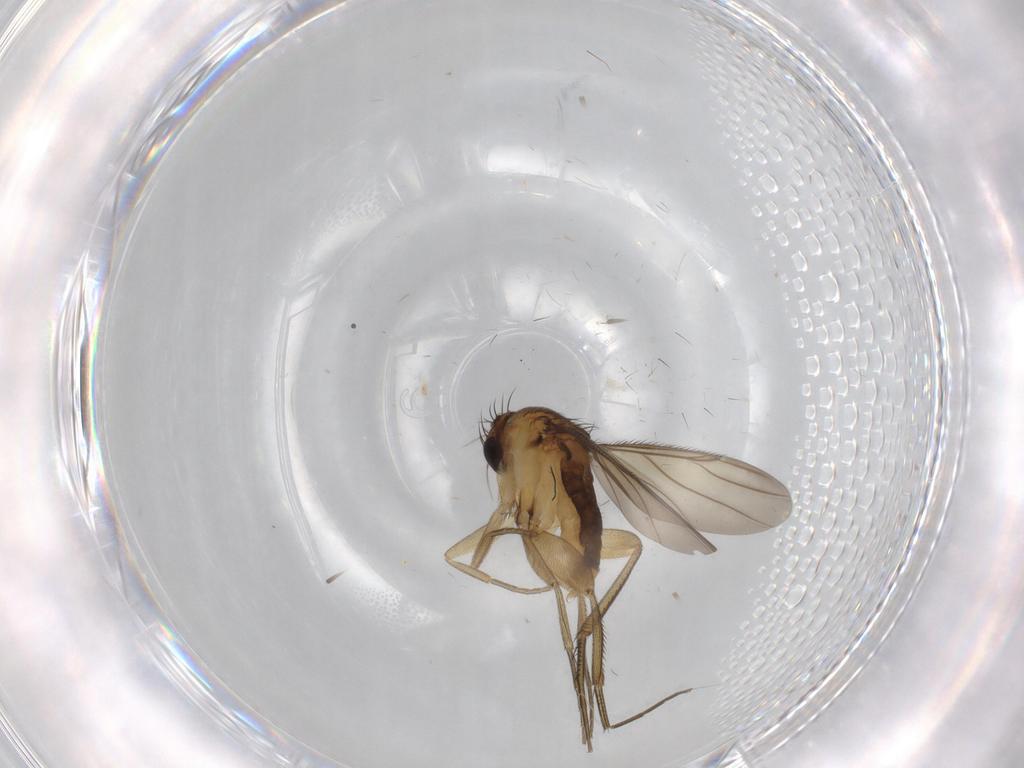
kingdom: Animalia
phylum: Arthropoda
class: Insecta
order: Diptera
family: Phoridae
